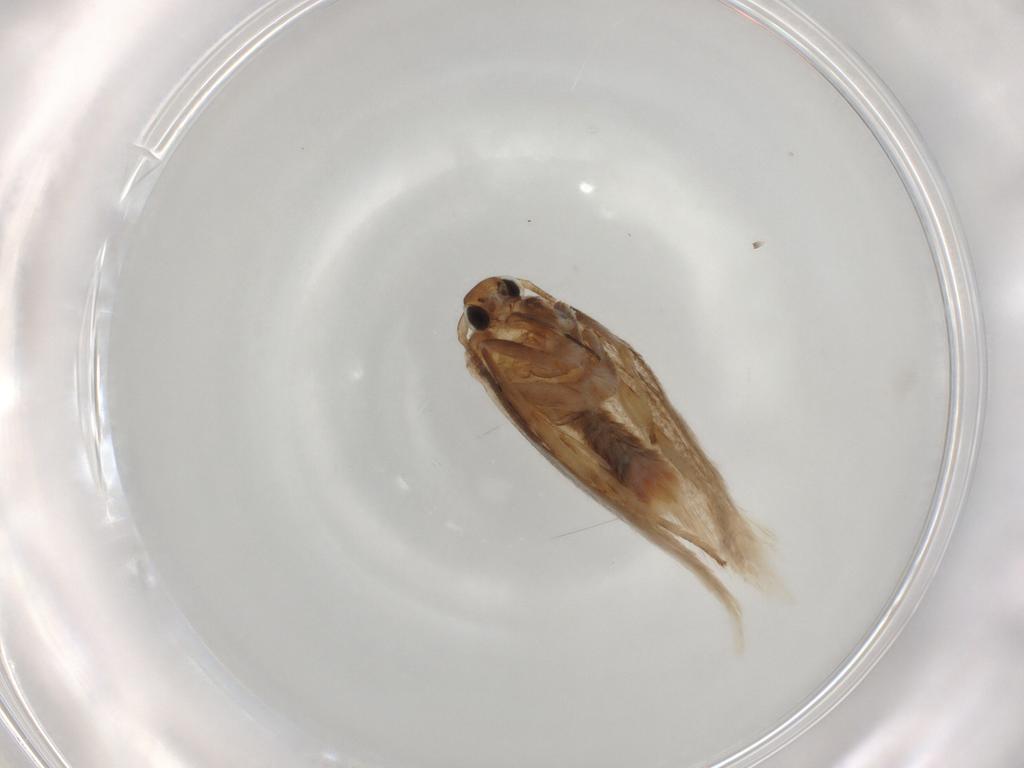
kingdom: Animalia
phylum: Arthropoda
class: Insecta
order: Lepidoptera
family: Elachistidae
